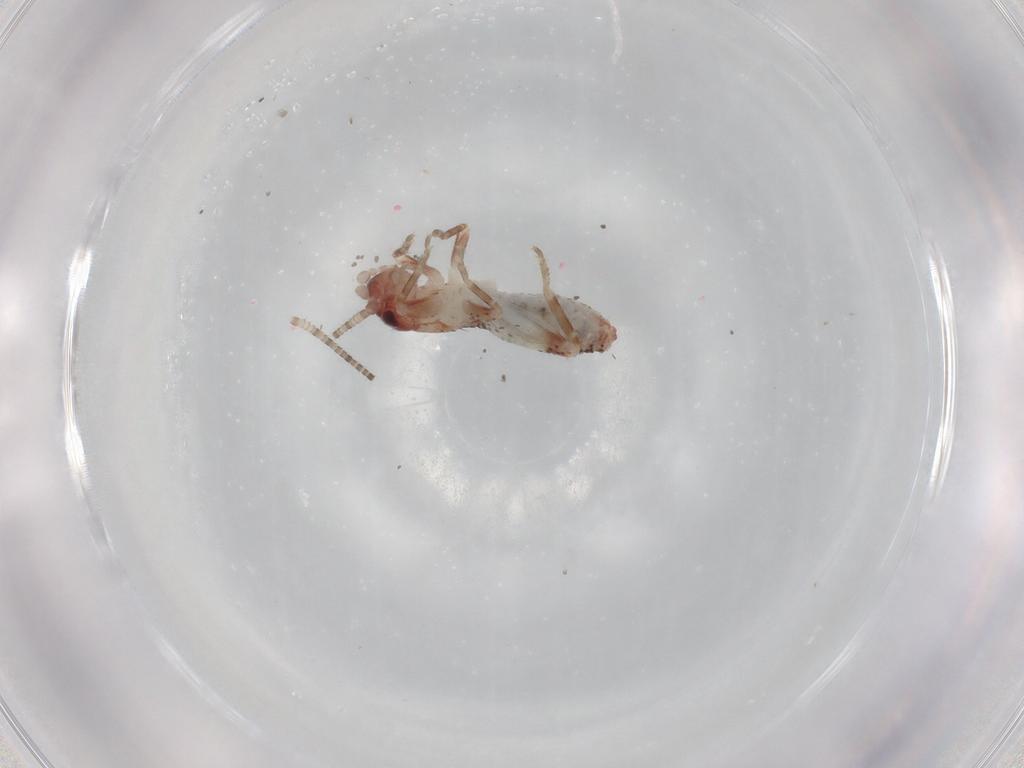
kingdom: Animalia
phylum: Arthropoda
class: Insecta
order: Orthoptera
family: Mogoplistidae
